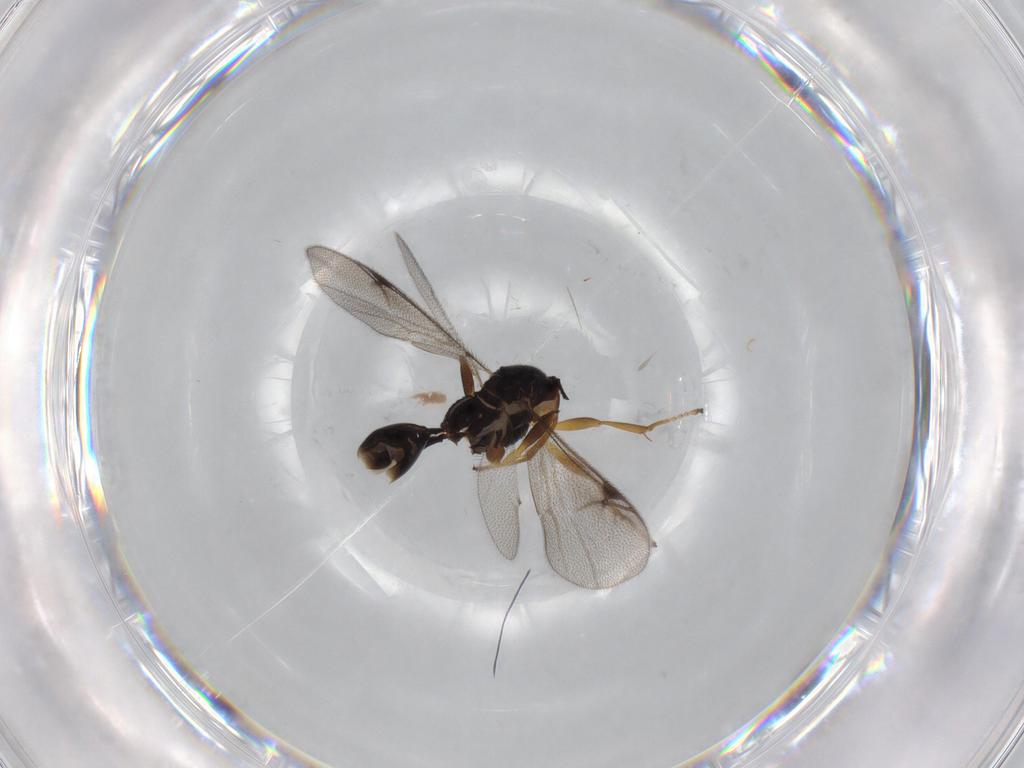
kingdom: Animalia
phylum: Arthropoda
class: Insecta
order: Hymenoptera
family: Proctotrupidae
